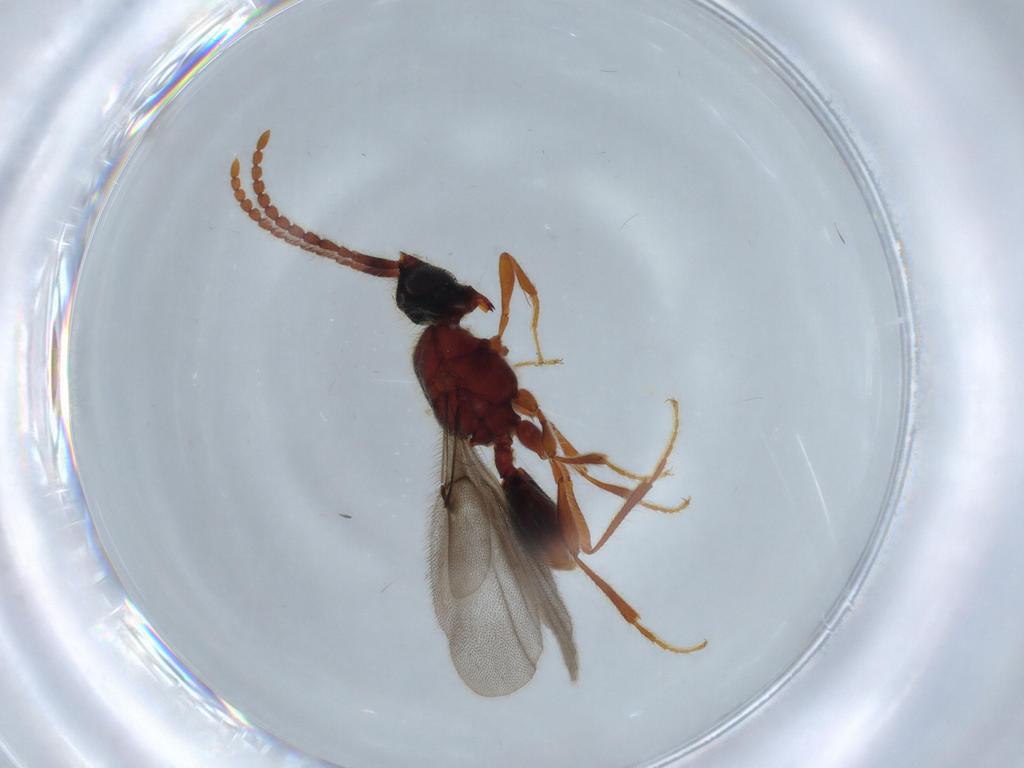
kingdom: Animalia
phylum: Arthropoda
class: Insecta
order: Hymenoptera
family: Diapriidae
